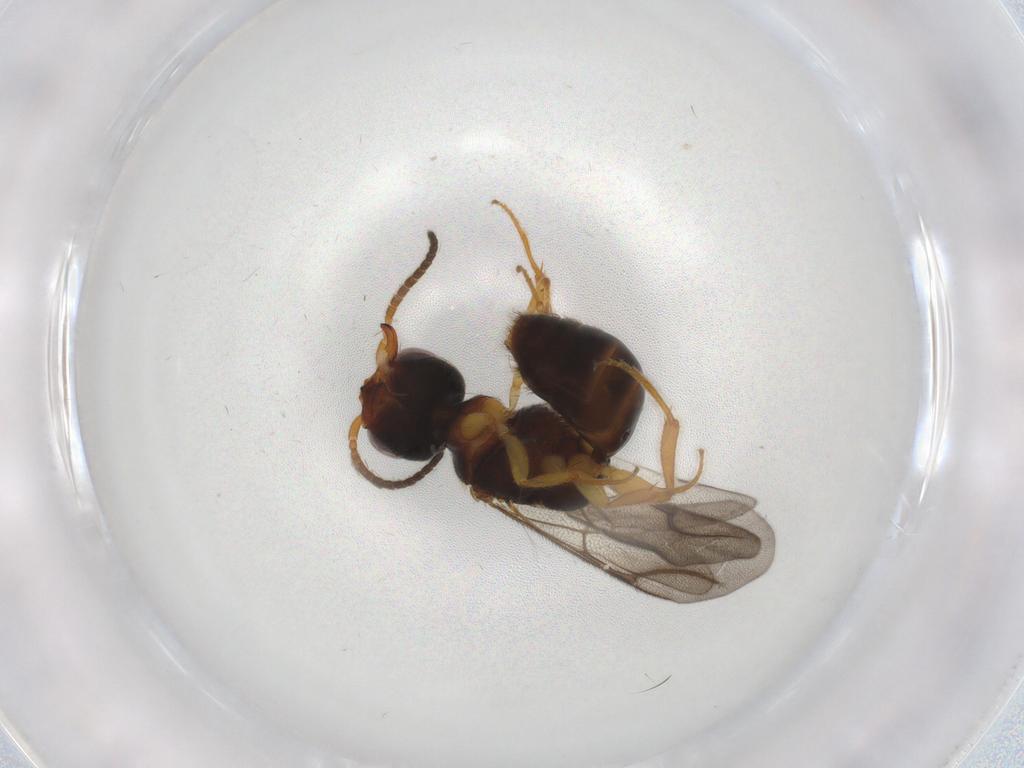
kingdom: Animalia
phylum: Arthropoda
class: Insecta
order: Hymenoptera
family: Bethylidae
